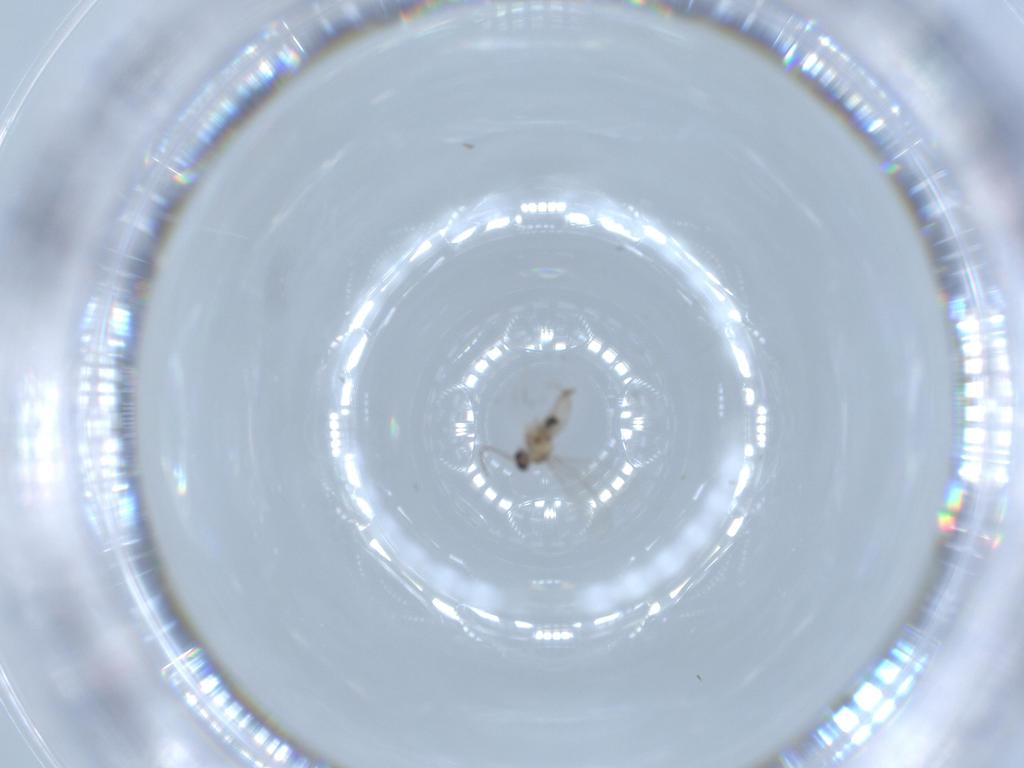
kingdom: Animalia
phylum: Arthropoda
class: Insecta
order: Diptera
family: Cecidomyiidae
